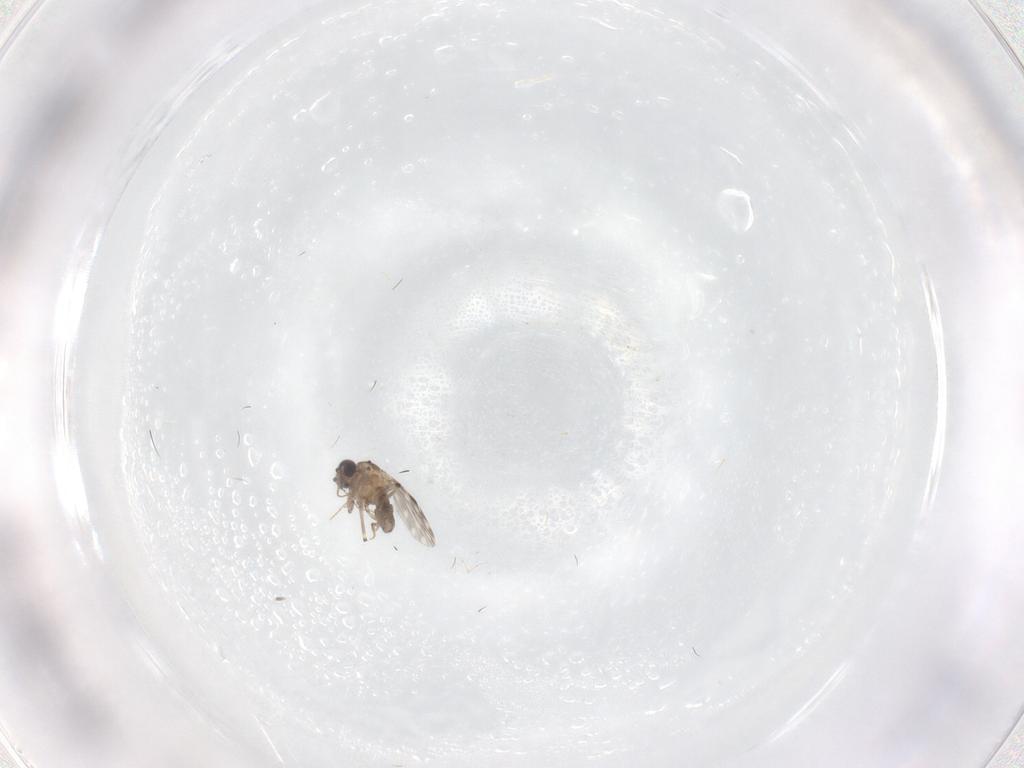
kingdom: Animalia
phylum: Arthropoda
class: Insecta
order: Diptera
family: Ceratopogonidae
